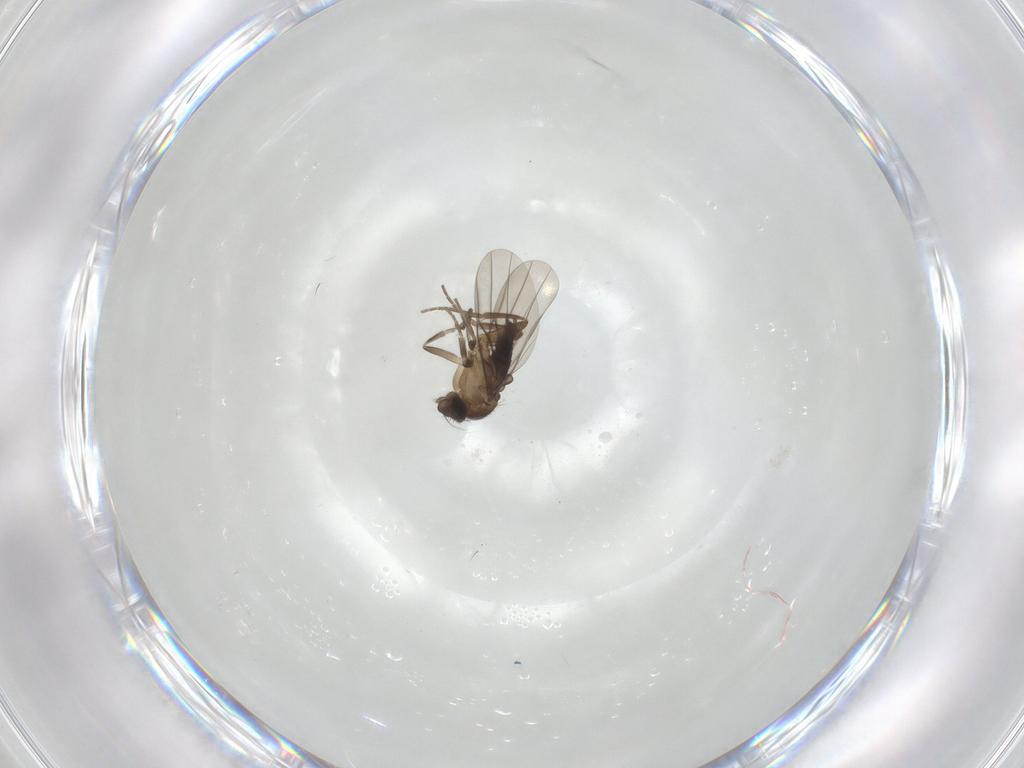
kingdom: Animalia
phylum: Arthropoda
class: Insecta
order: Diptera
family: Phoridae
